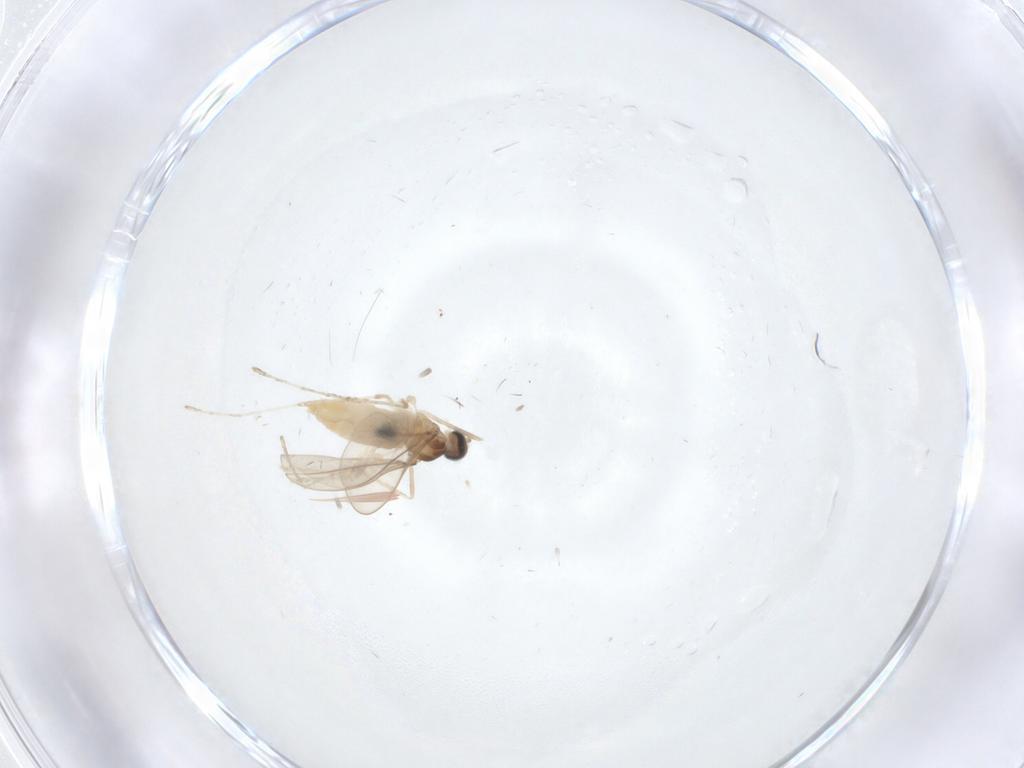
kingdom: Animalia
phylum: Arthropoda
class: Insecta
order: Diptera
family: Cecidomyiidae
